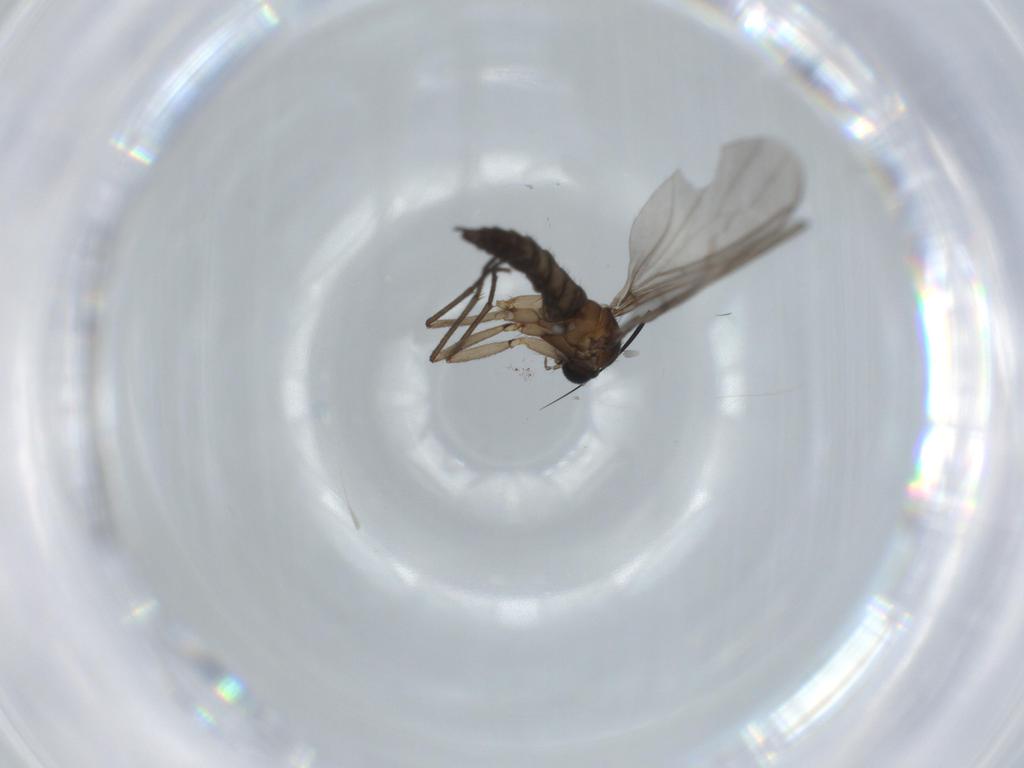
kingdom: Animalia
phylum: Arthropoda
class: Insecta
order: Diptera
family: Sciaridae
